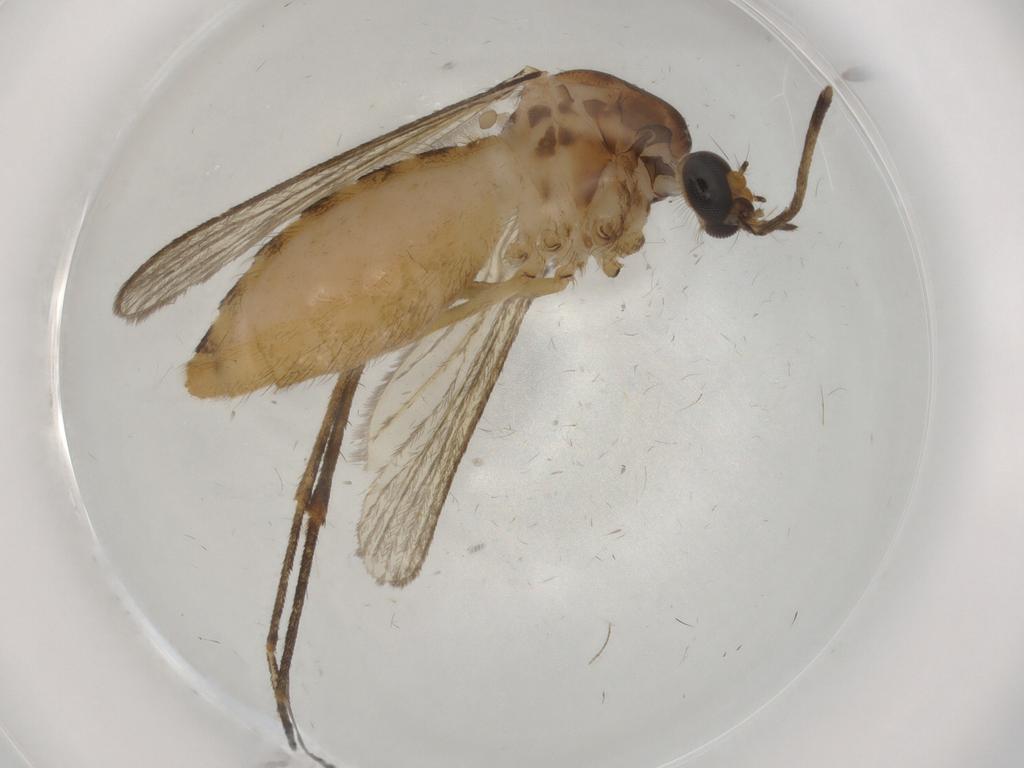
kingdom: Animalia
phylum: Arthropoda
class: Insecta
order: Diptera
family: Culicidae
